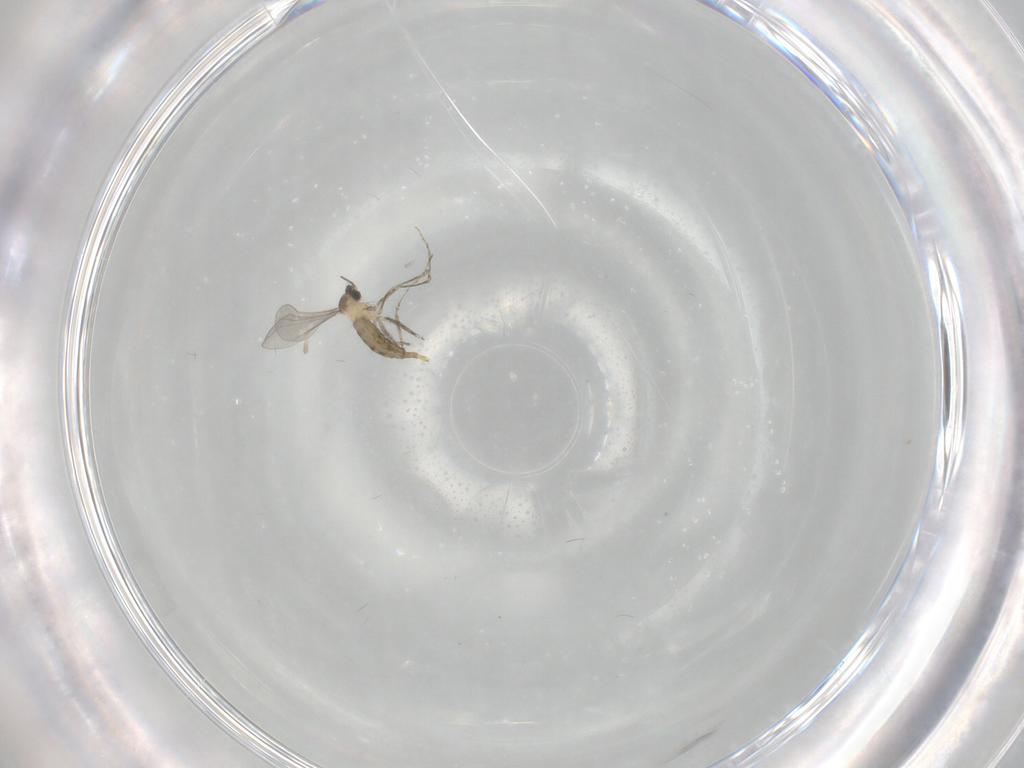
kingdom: Animalia
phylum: Arthropoda
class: Insecta
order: Diptera
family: Cecidomyiidae
